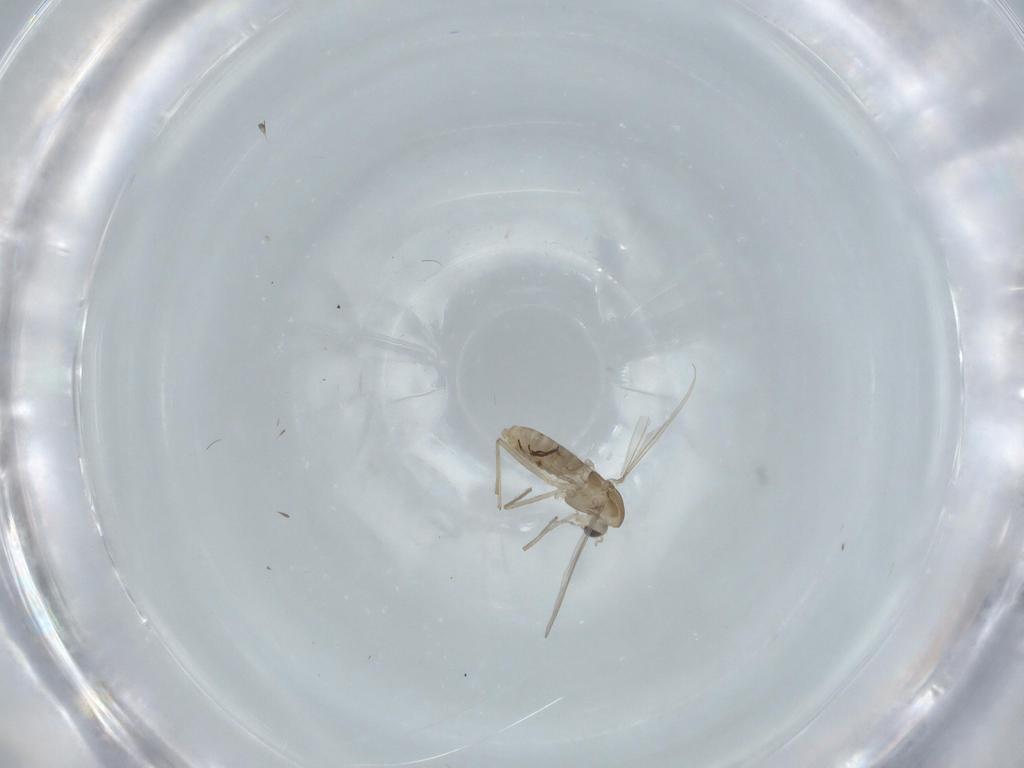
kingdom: Animalia
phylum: Arthropoda
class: Insecta
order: Diptera
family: Chironomidae
